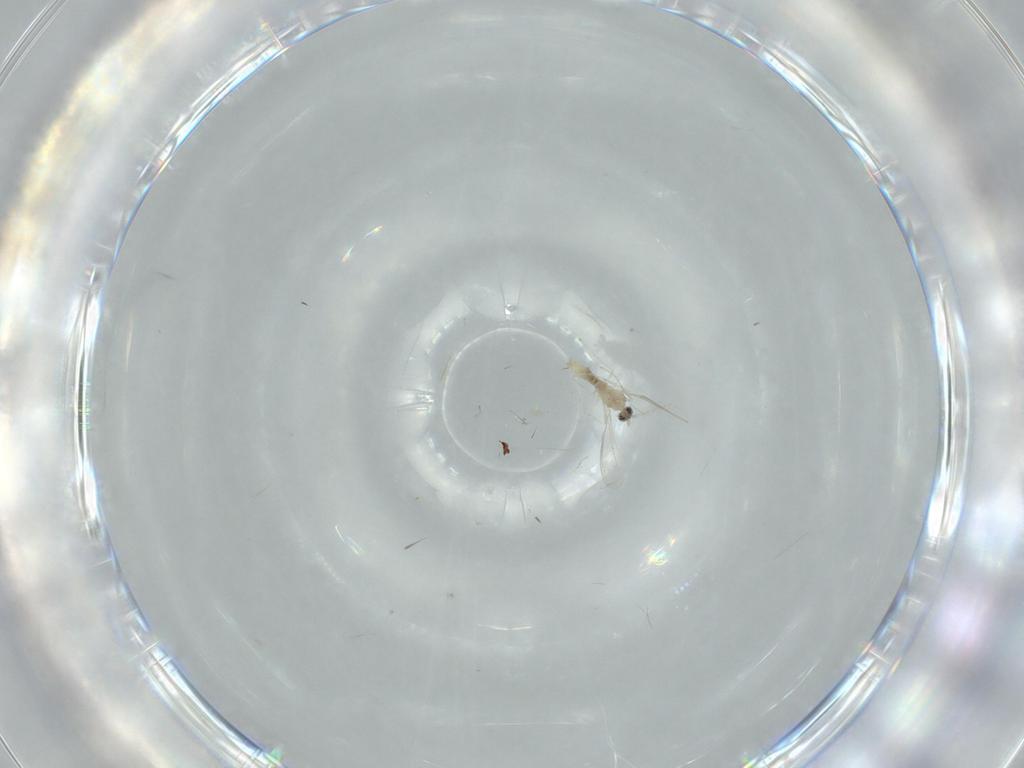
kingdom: Animalia
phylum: Arthropoda
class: Insecta
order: Diptera
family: Cecidomyiidae
